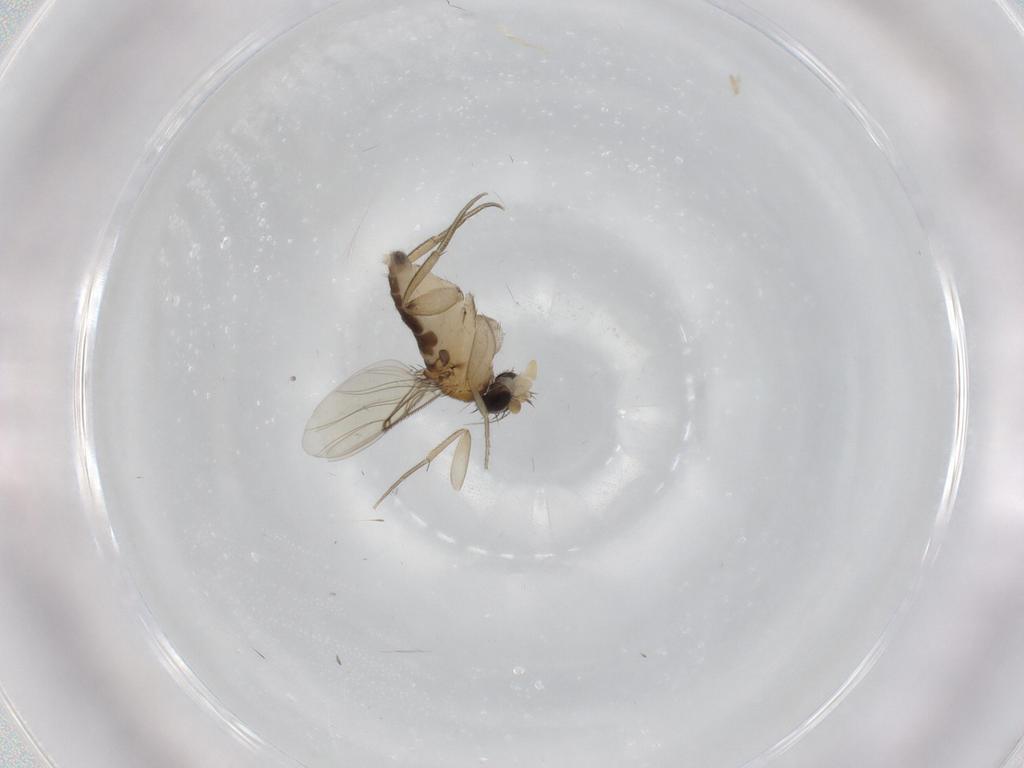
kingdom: Animalia
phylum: Arthropoda
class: Insecta
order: Diptera
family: Phoridae
